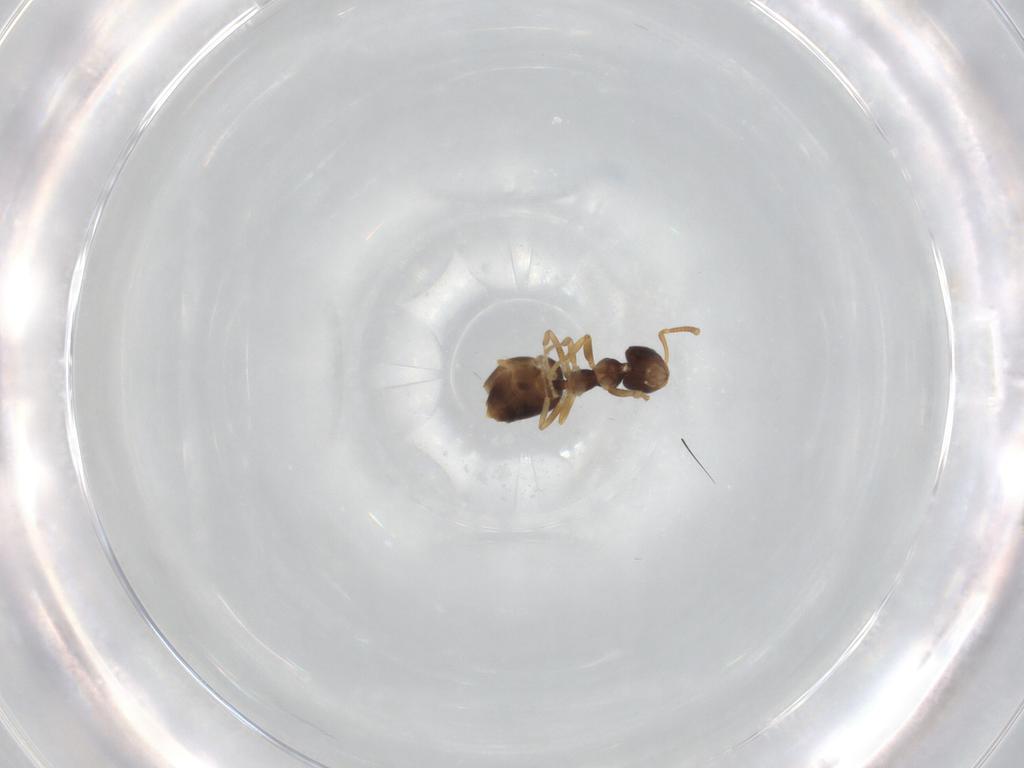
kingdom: Animalia
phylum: Arthropoda
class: Insecta
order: Hymenoptera
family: Formicidae
